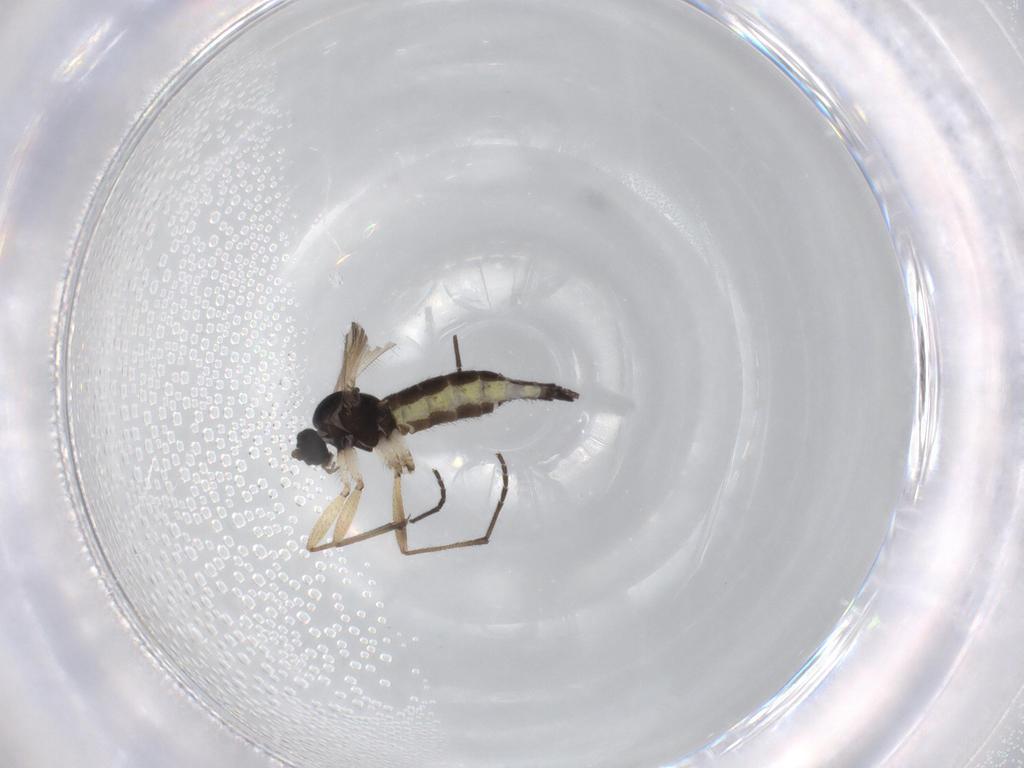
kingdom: Animalia
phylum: Arthropoda
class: Insecta
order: Diptera
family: Sciaridae
